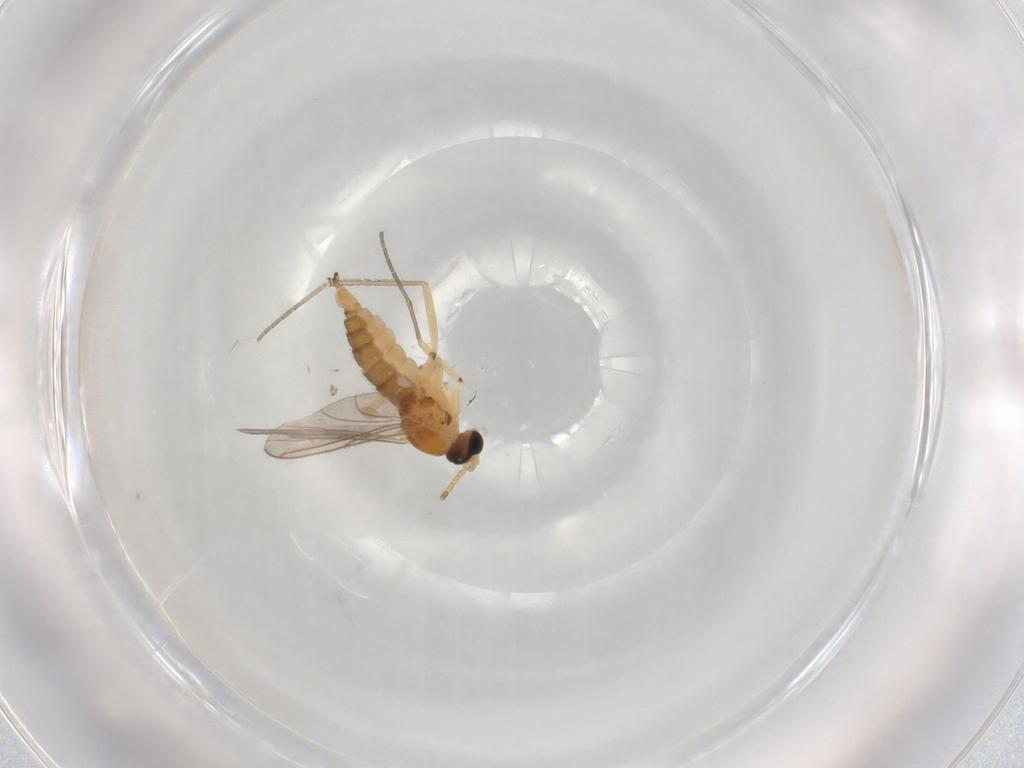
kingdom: Animalia
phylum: Arthropoda
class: Insecta
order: Diptera
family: Sciaridae
